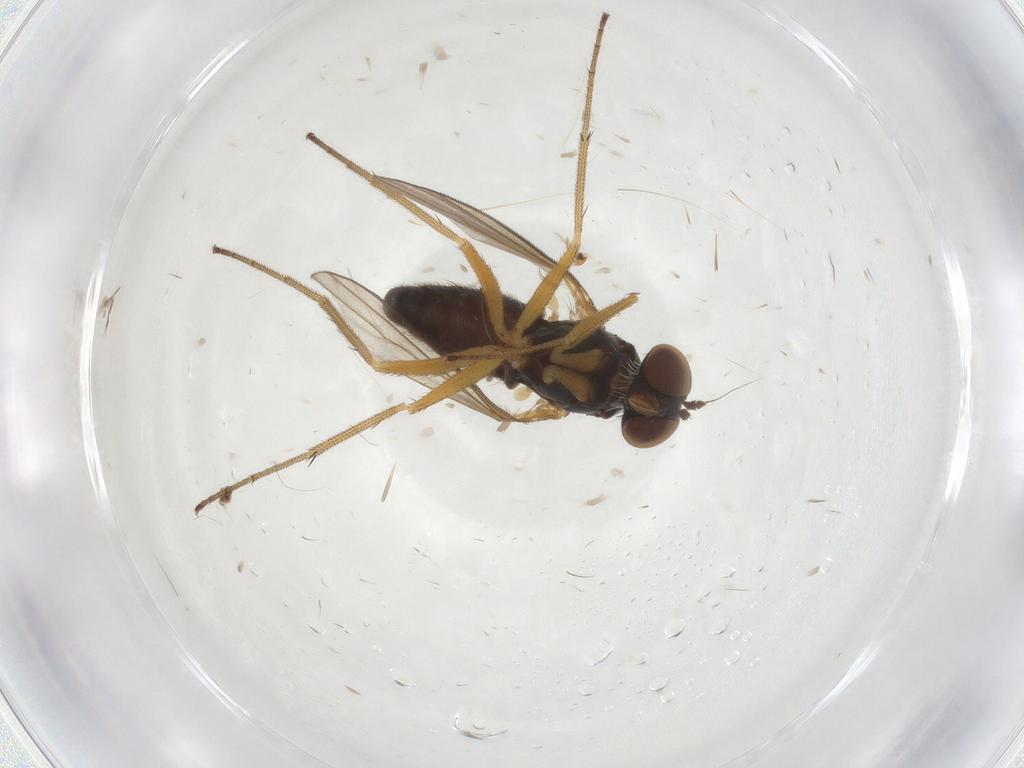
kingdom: Animalia
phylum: Arthropoda
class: Insecta
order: Diptera
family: Dolichopodidae
